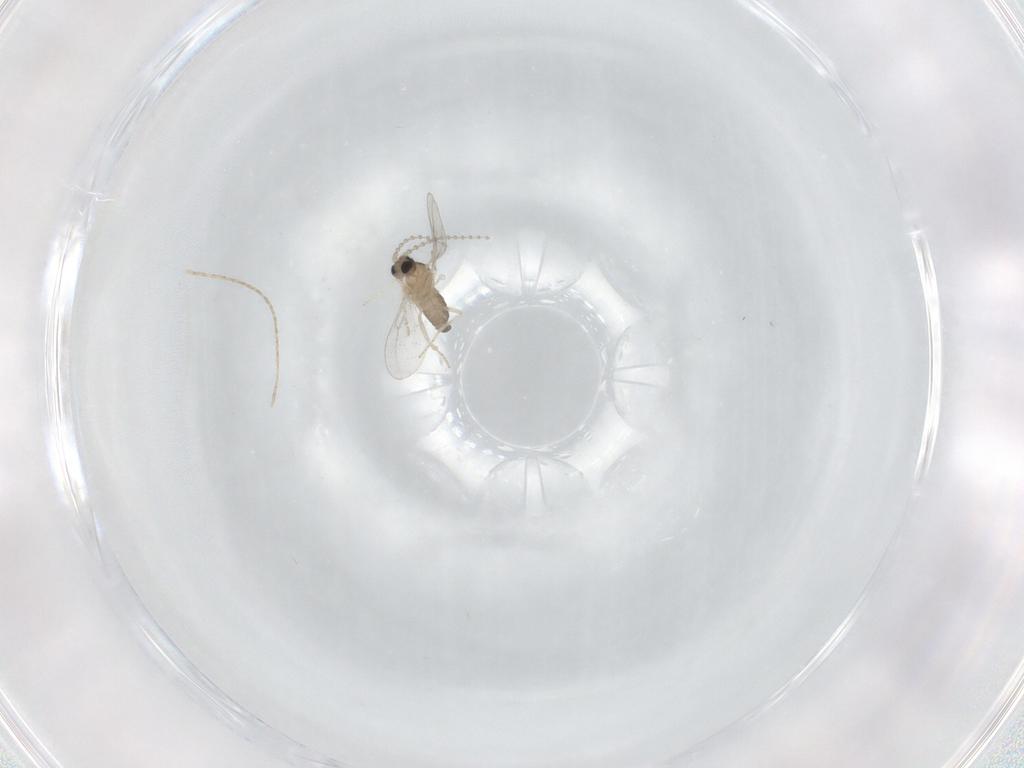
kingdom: Animalia
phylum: Arthropoda
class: Insecta
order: Diptera
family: Cecidomyiidae
